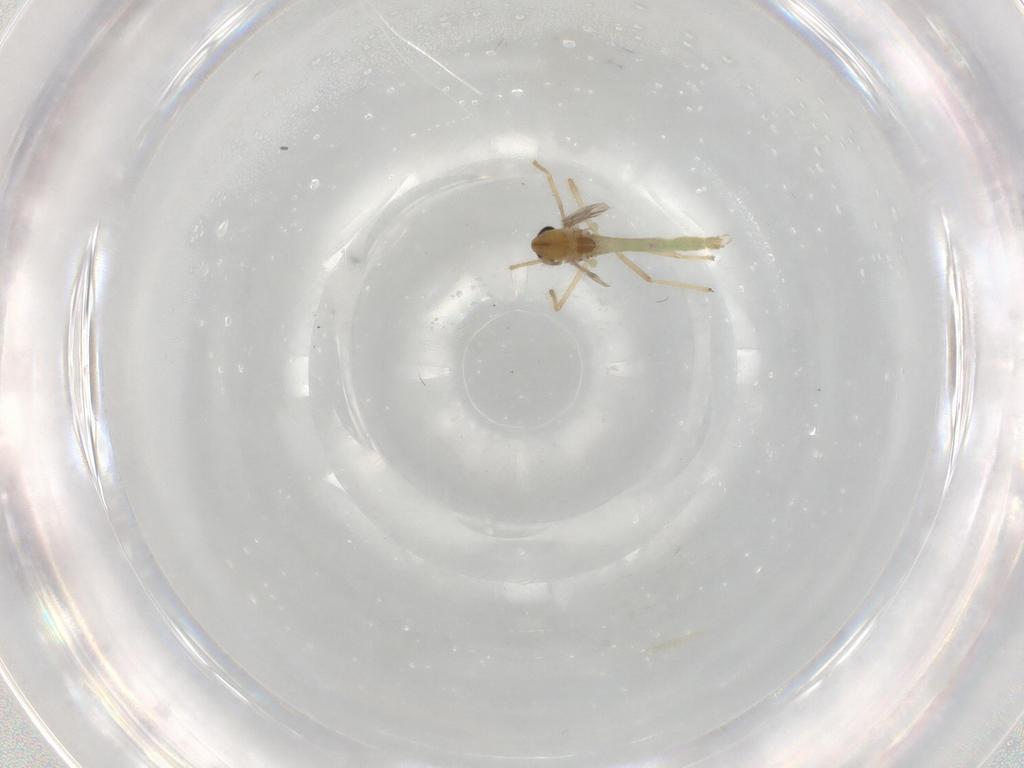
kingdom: Animalia
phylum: Arthropoda
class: Insecta
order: Diptera
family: Chironomidae
